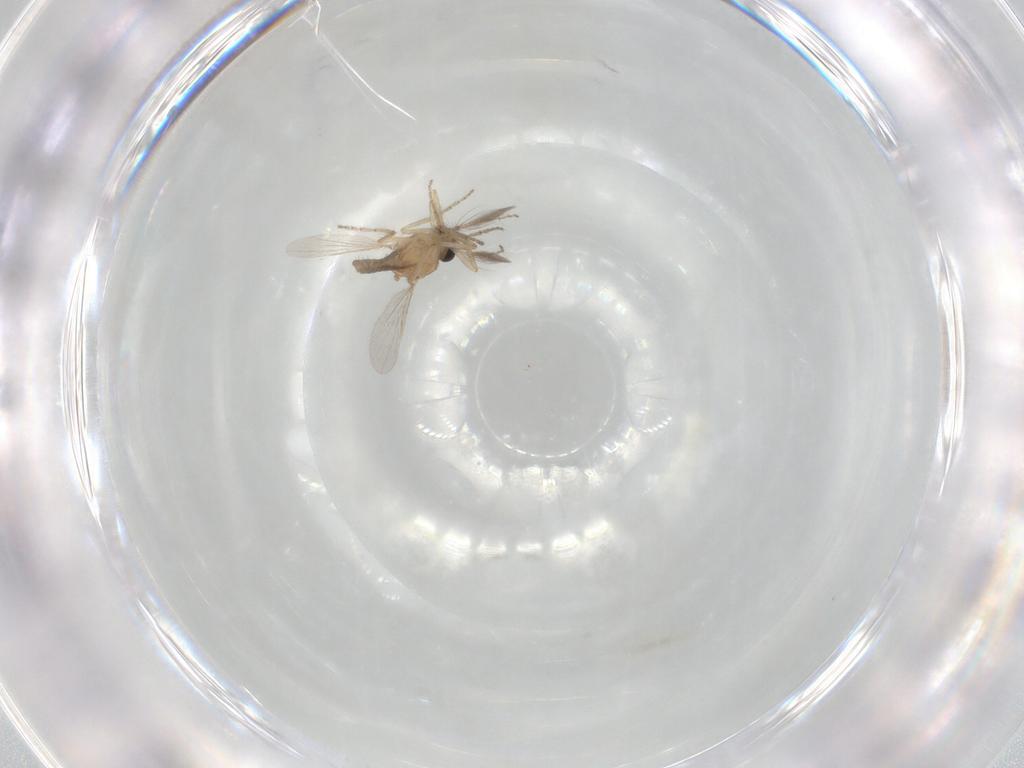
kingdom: Animalia
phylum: Arthropoda
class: Insecta
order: Diptera
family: Ceratopogonidae
